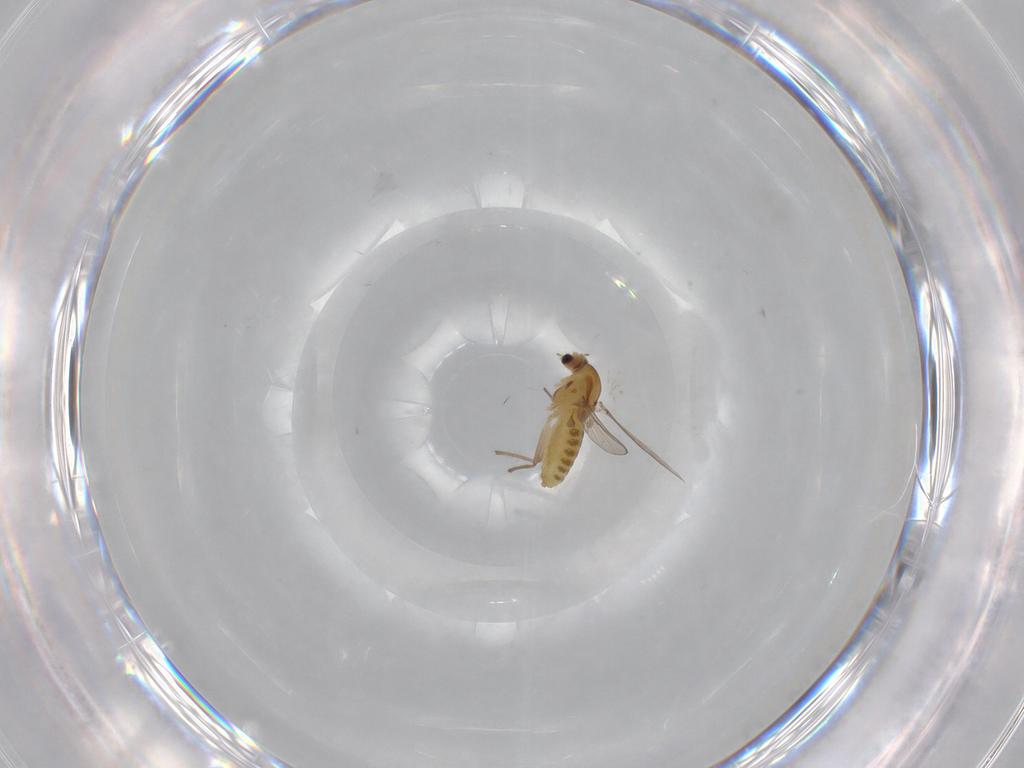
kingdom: Animalia
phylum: Arthropoda
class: Insecta
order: Diptera
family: Chironomidae
